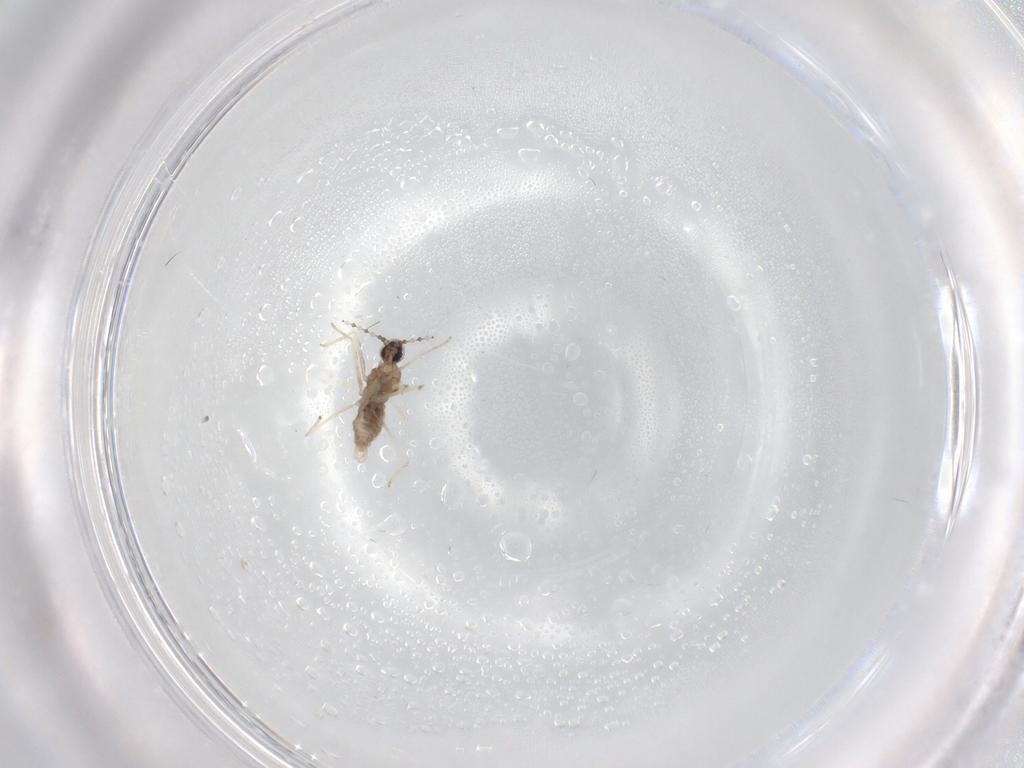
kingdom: Animalia
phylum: Arthropoda
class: Insecta
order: Diptera
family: Cecidomyiidae
